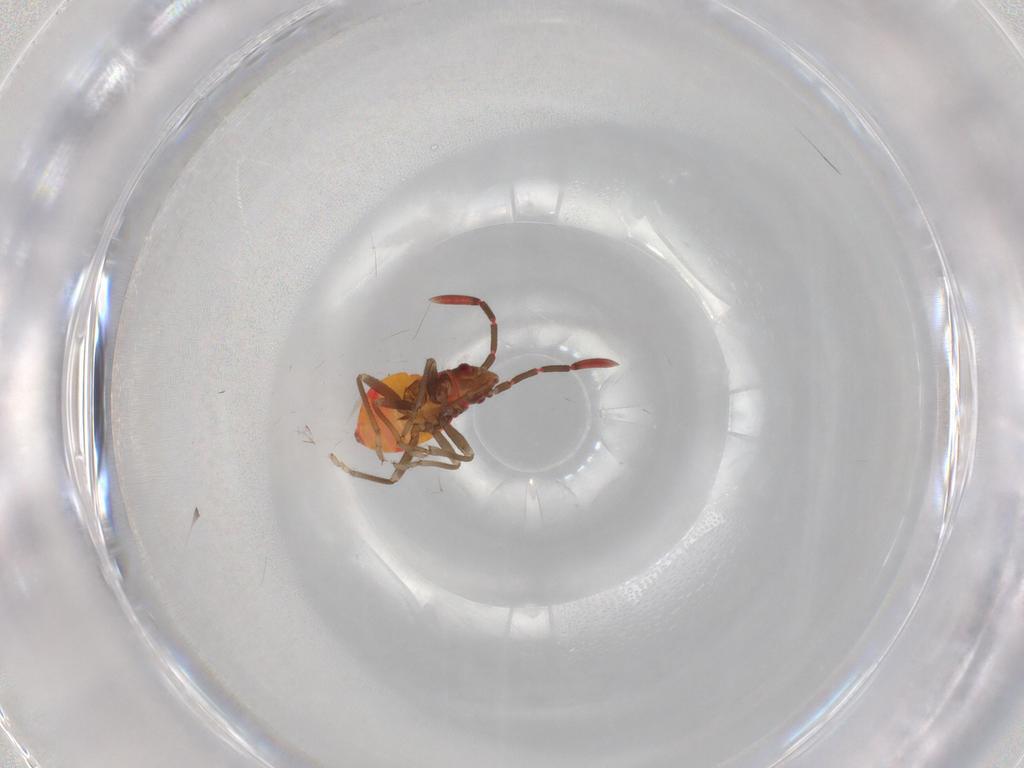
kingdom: Animalia
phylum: Arthropoda
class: Insecta
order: Hemiptera
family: Rhyparochromidae
